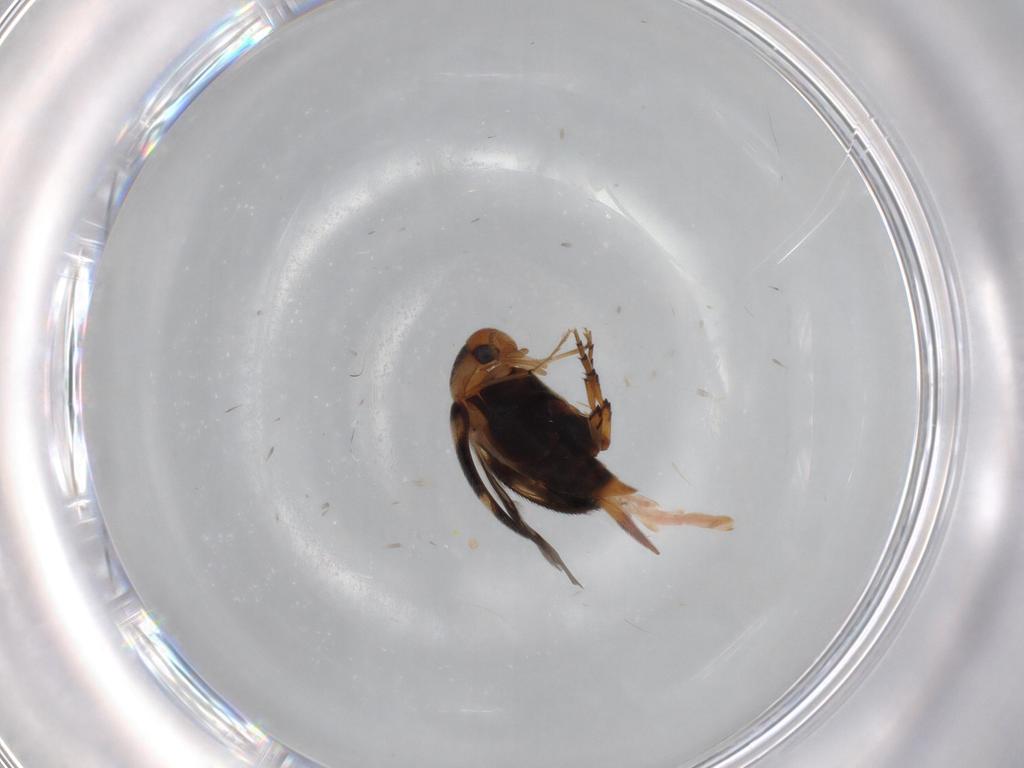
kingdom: Animalia
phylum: Arthropoda
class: Insecta
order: Coleoptera
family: Mordellidae
